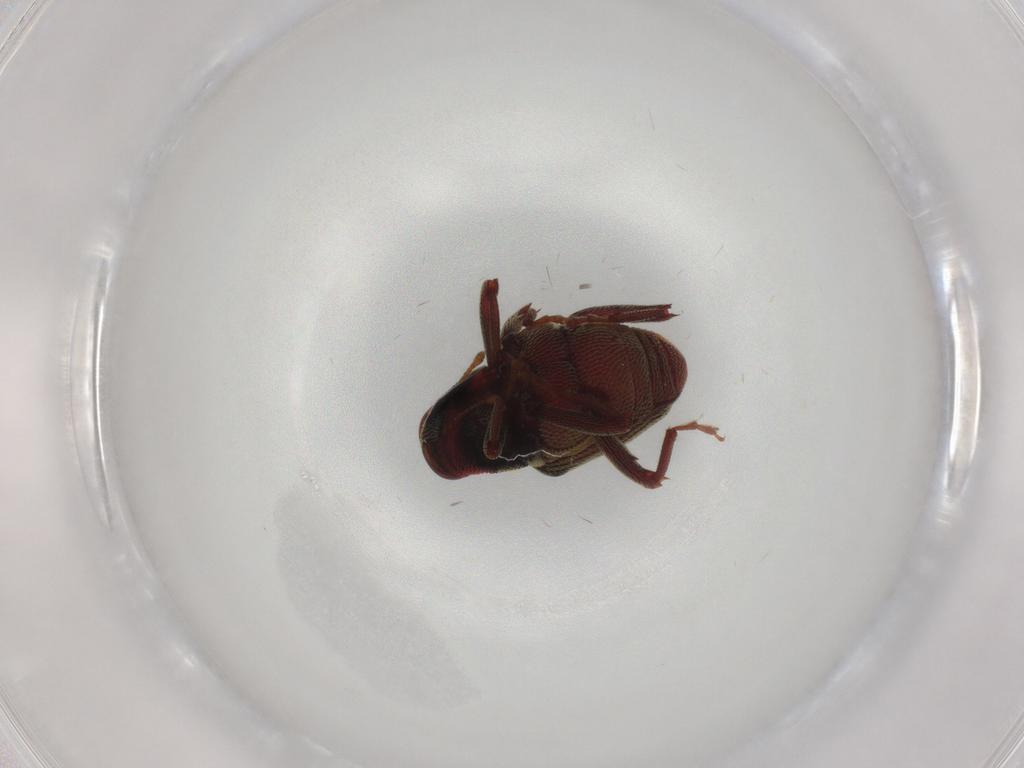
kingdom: Animalia
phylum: Arthropoda
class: Insecta
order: Coleoptera
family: Curculionidae
